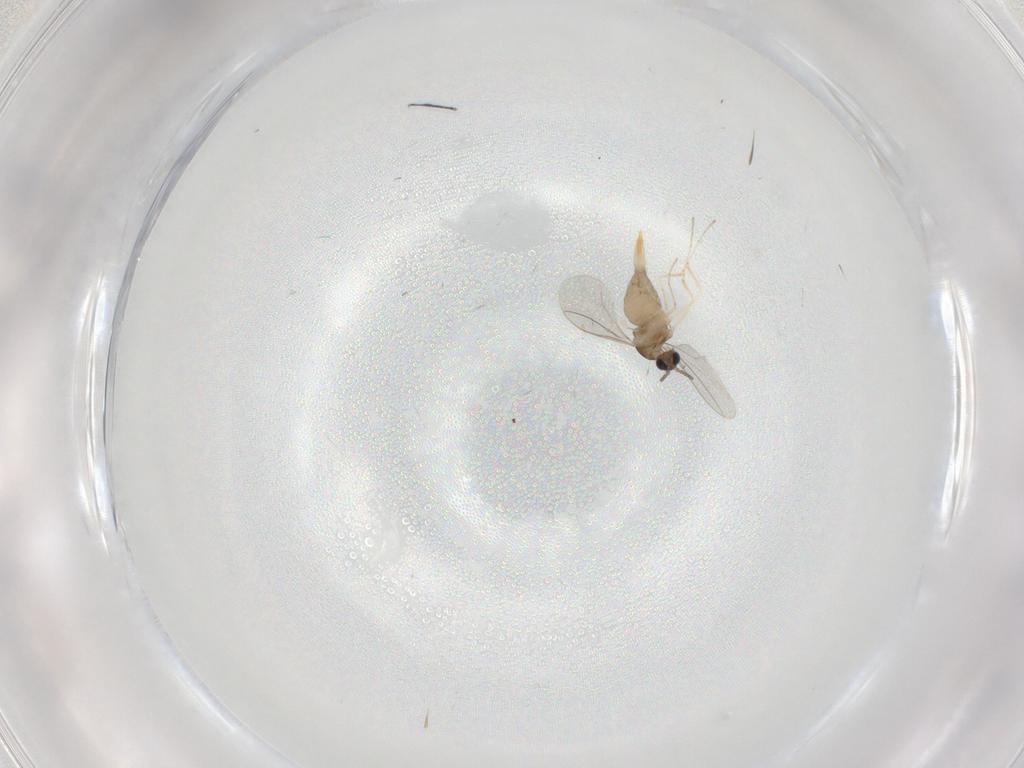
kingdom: Animalia
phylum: Arthropoda
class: Insecta
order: Diptera
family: Cecidomyiidae
